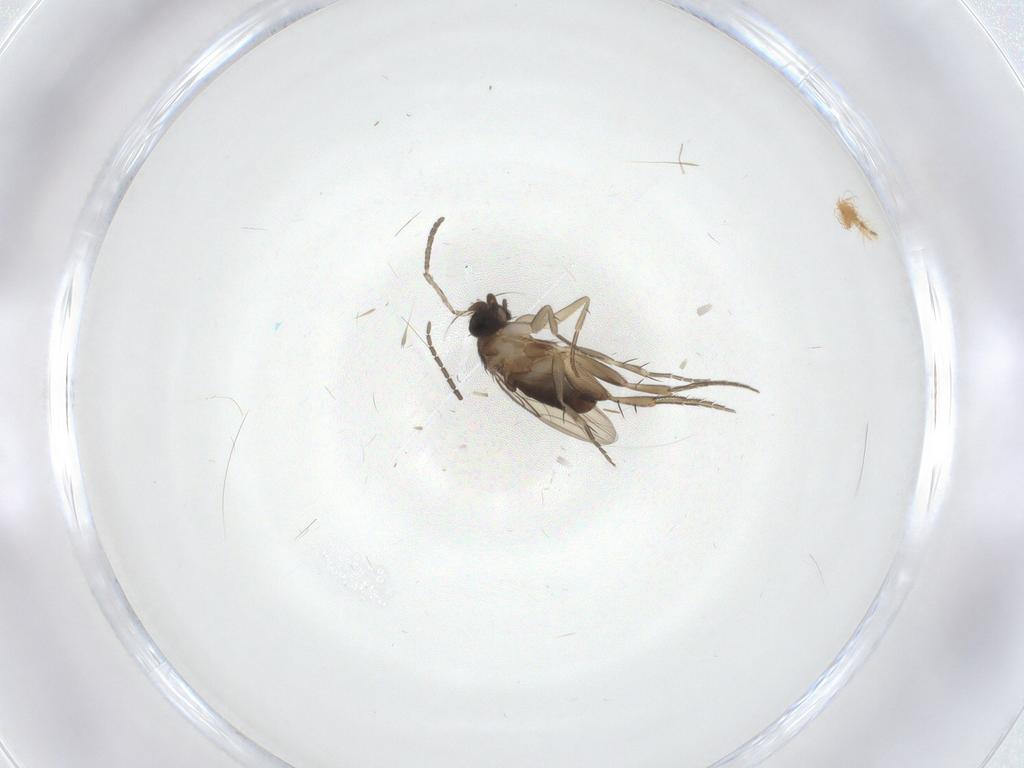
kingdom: Animalia
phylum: Arthropoda
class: Insecta
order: Diptera
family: Phoridae
